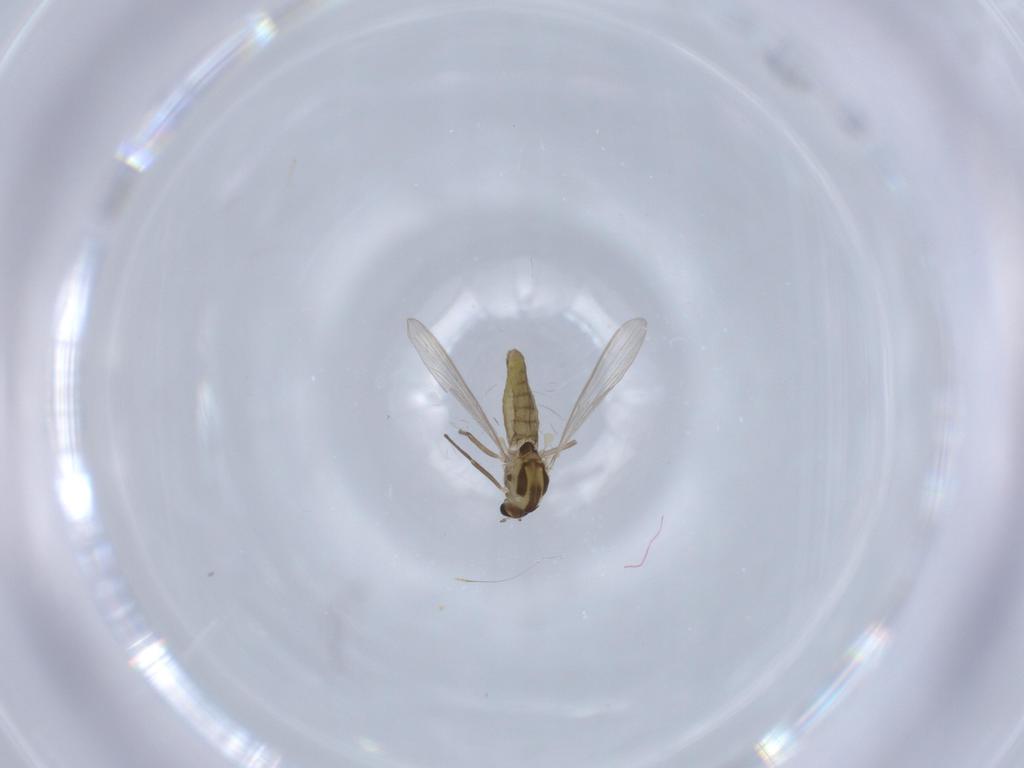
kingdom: Animalia
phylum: Arthropoda
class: Insecta
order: Diptera
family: Chironomidae
